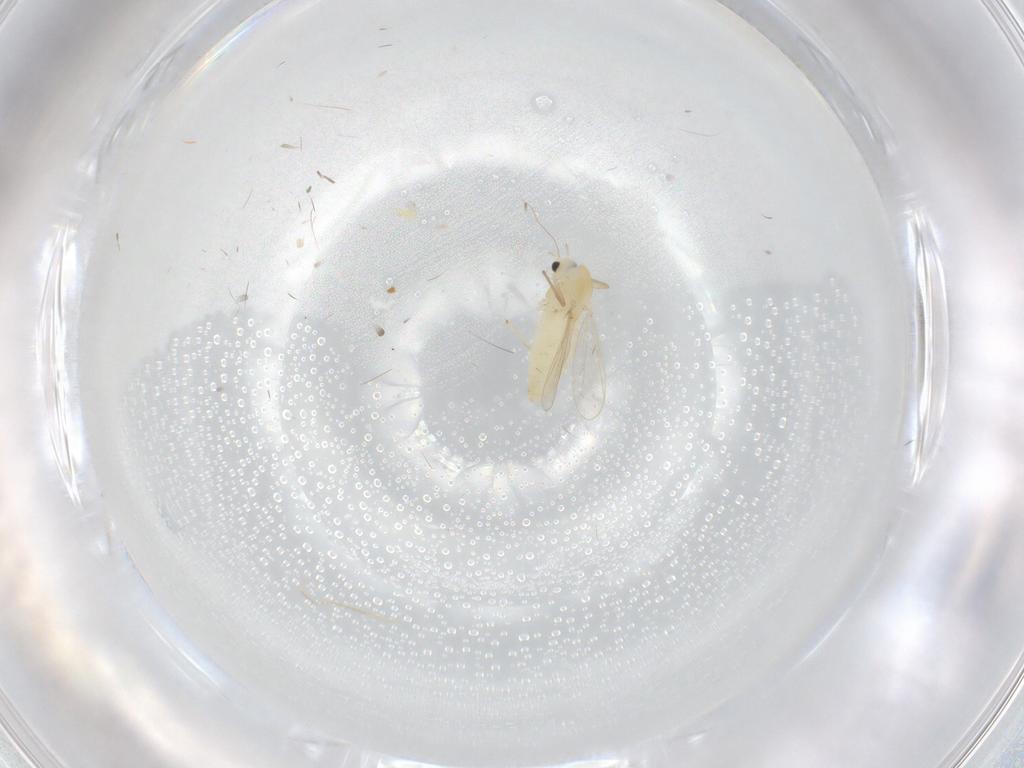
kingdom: Animalia
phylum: Arthropoda
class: Insecta
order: Diptera
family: Chironomidae
